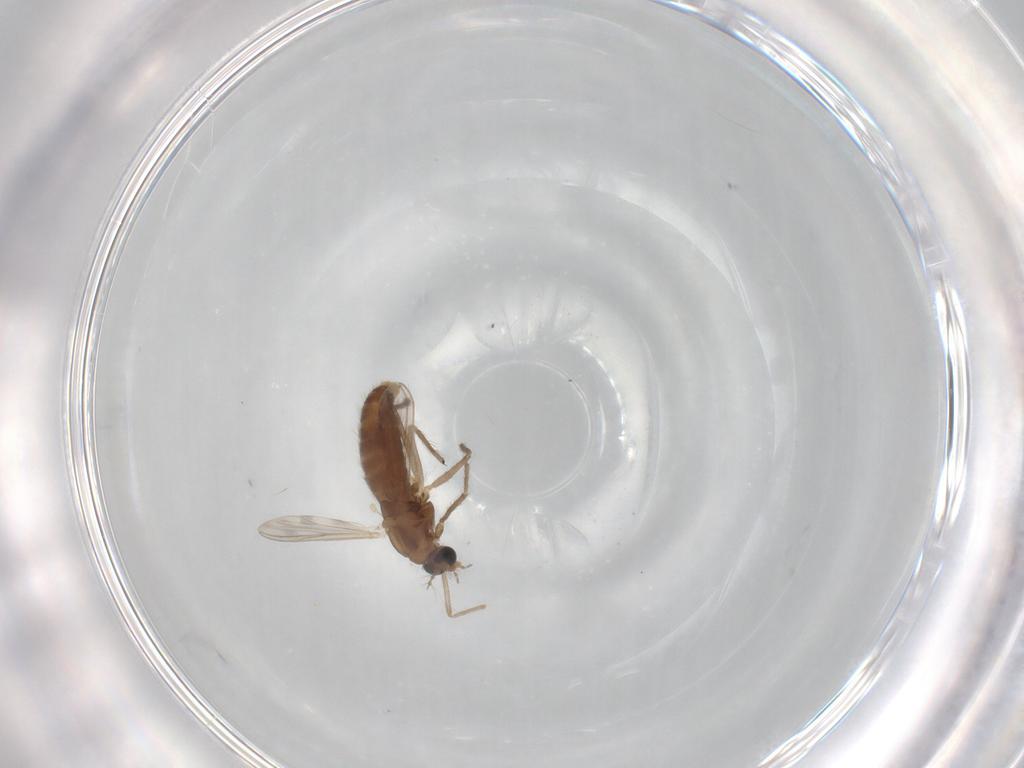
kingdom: Animalia
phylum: Arthropoda
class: Insecta
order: Diptera
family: Chironomidae
